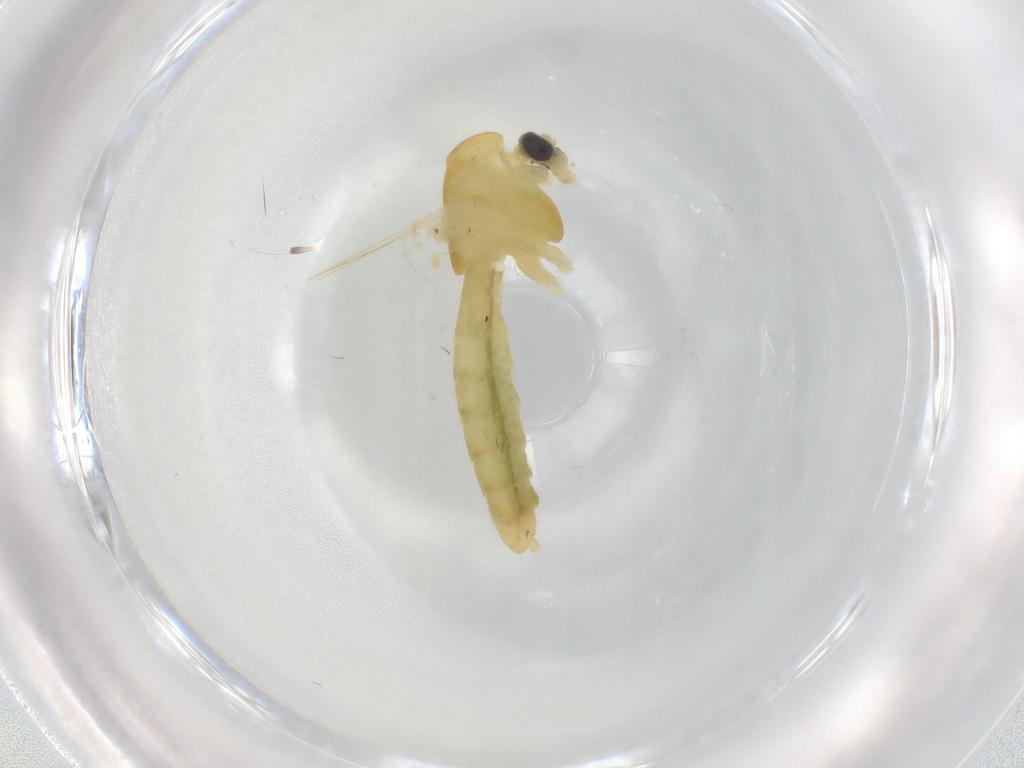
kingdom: Animalia
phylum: Arthropoda
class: Insecta
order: Diptera
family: Chironomidae
